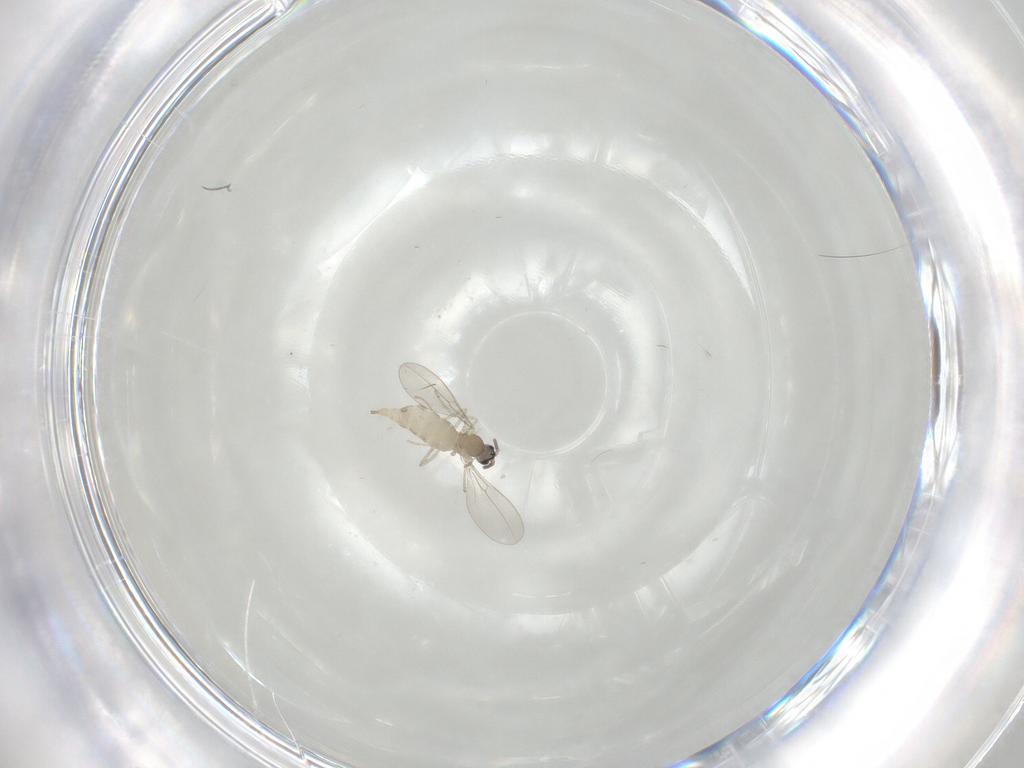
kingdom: Animalia
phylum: Arthropoda
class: Insecta
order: Diptera
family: Cecidomyiidae
